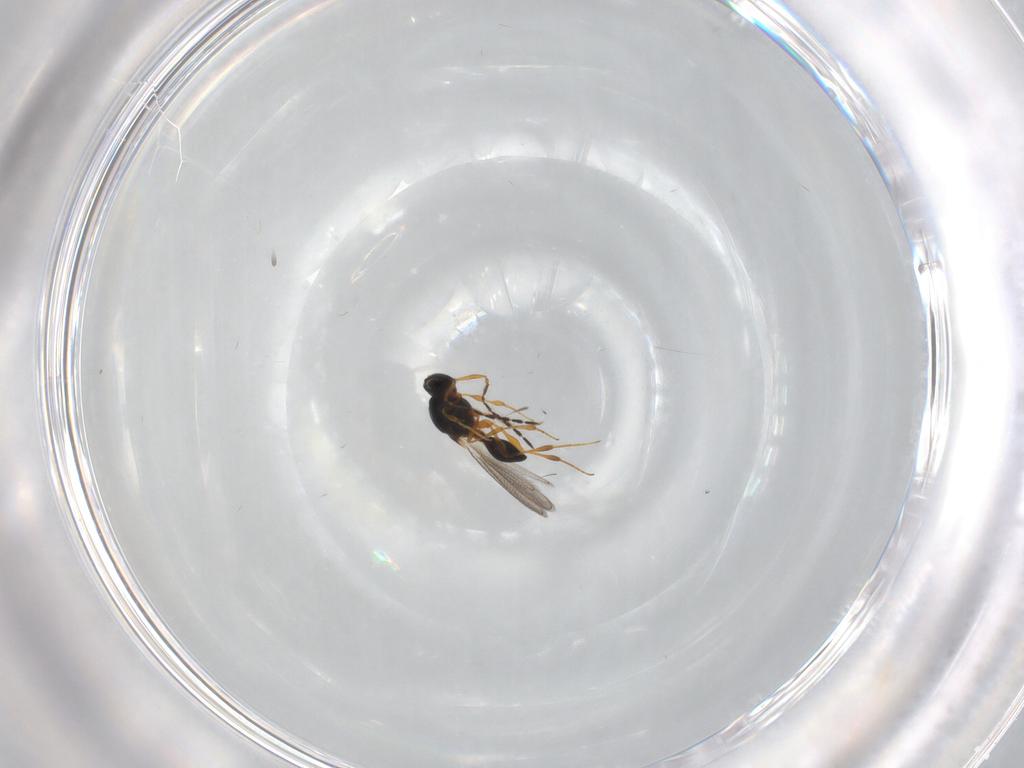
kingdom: Animalia
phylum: Arthropoda
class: Insecta
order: Hymenoptera
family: Platygastridae
